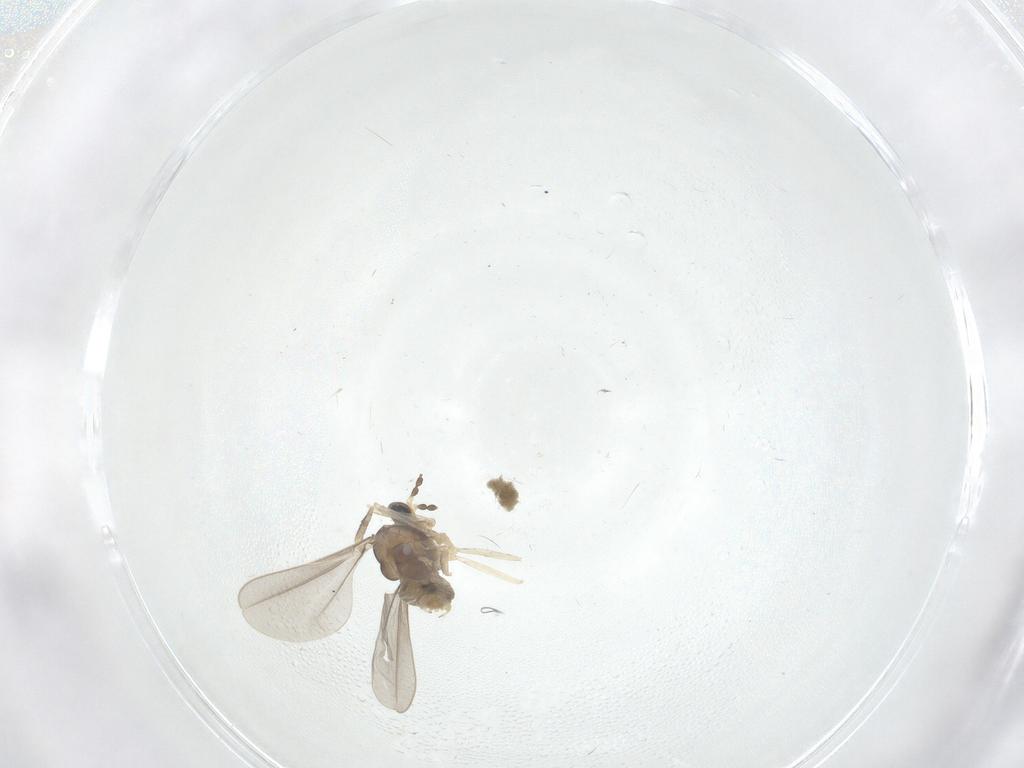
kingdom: Animalia
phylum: Arthropoda
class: Insecta
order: Diptera
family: Cecidomyiidae
